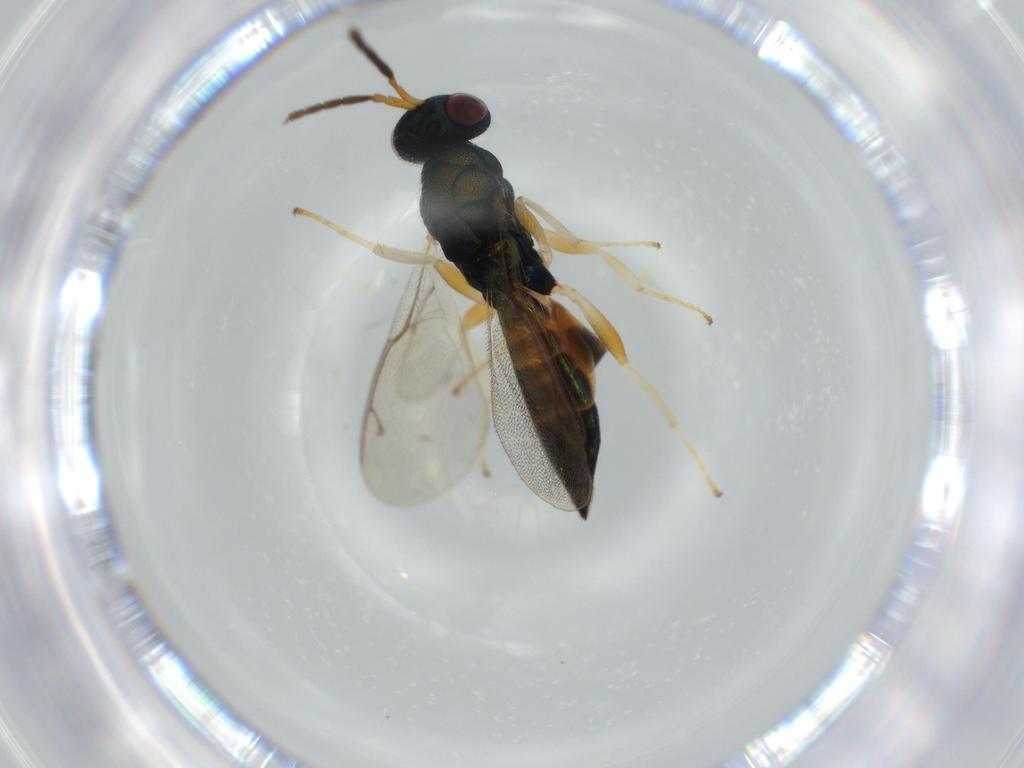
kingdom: Animalia
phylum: Arthropoda
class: Insecta
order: Hymenoptera
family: Pteromalidae
